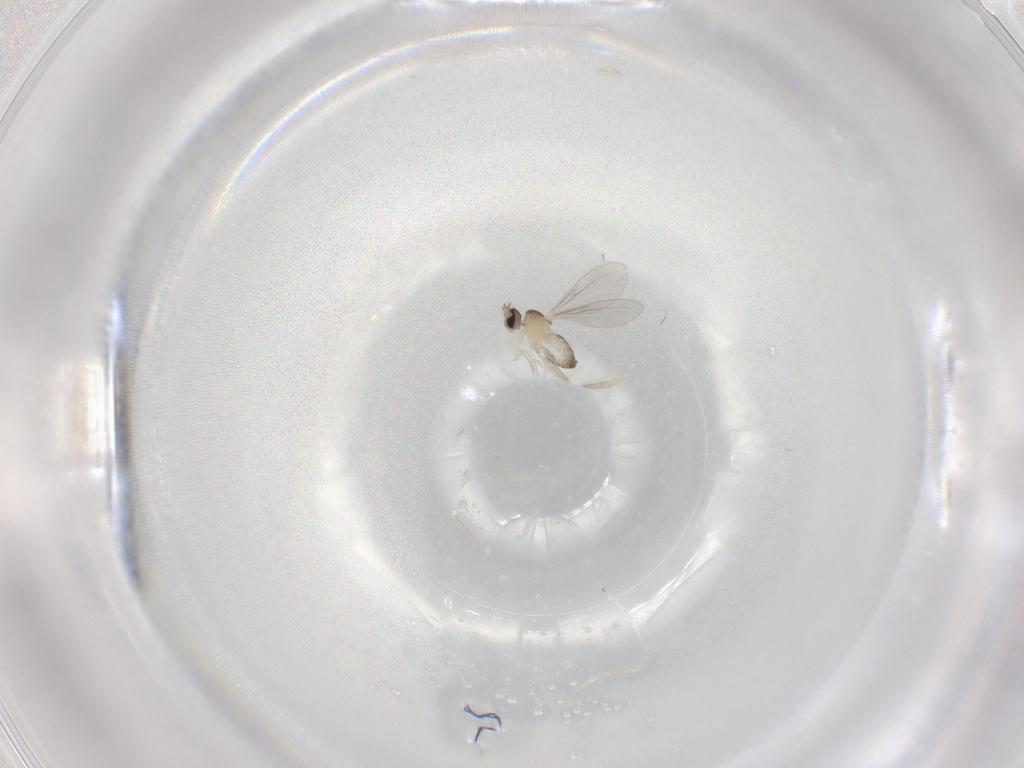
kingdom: Animalia
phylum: Arthropoda
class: Insecta
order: Diptera
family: Cecidomyiidae
